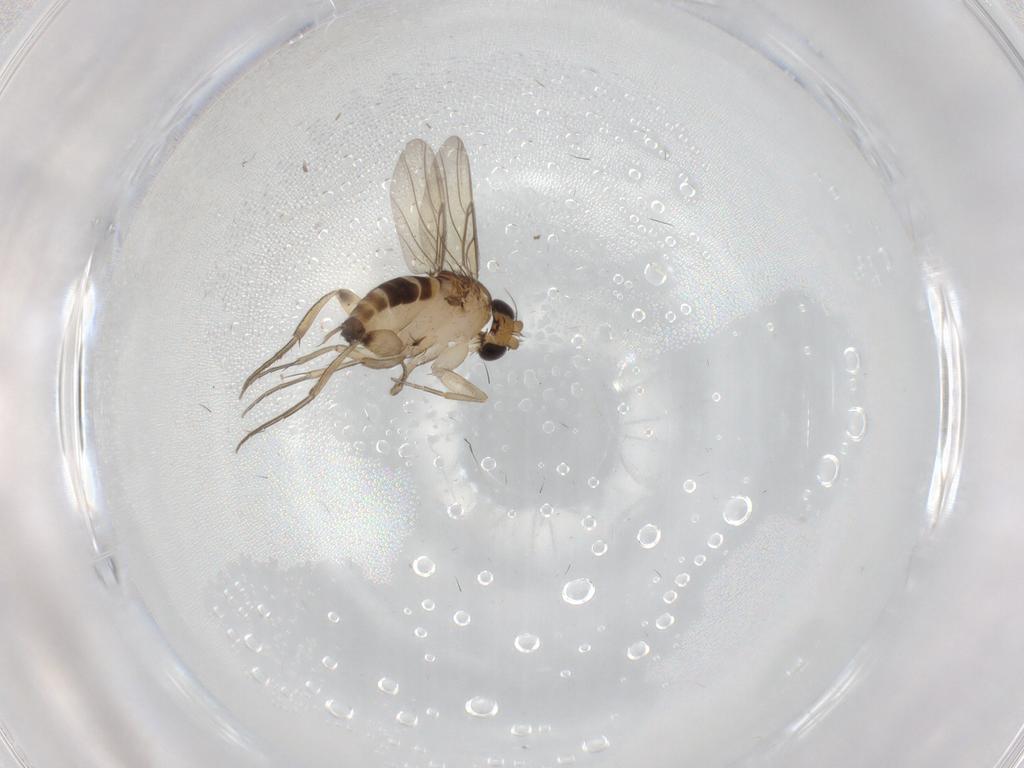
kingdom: Animalia
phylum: Arthropoda
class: Insecta
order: Diptera
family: Phoridae
